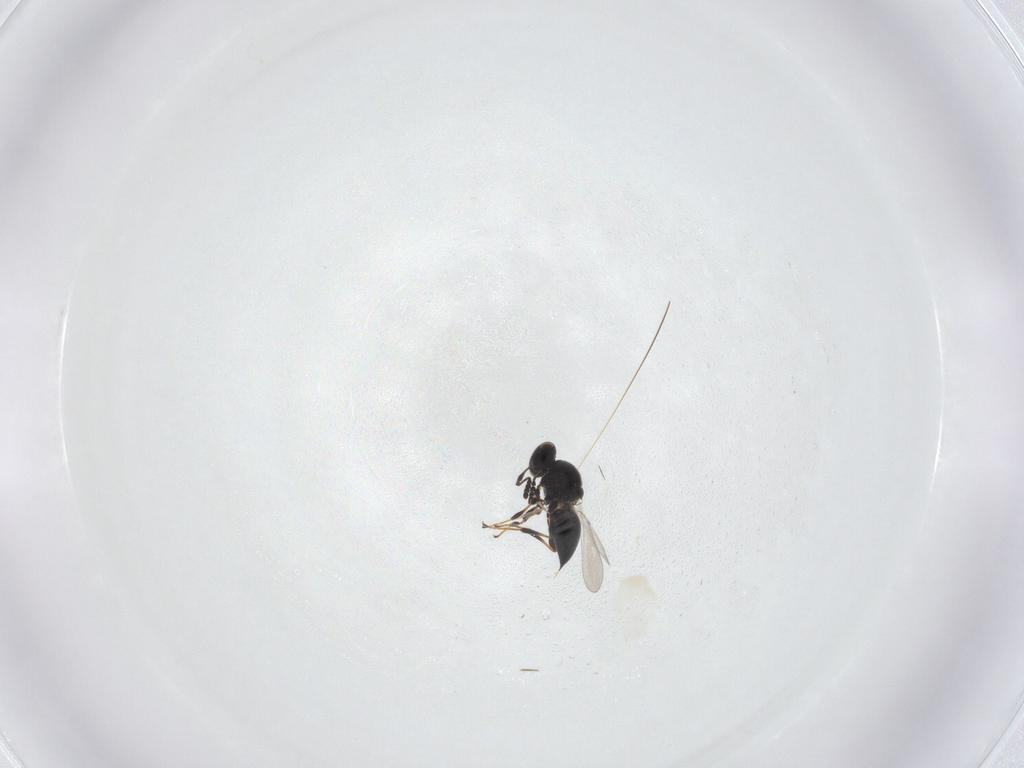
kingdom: Animalia
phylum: Arthropoda
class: Insecta
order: Hymenoptera
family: Platygastridae
